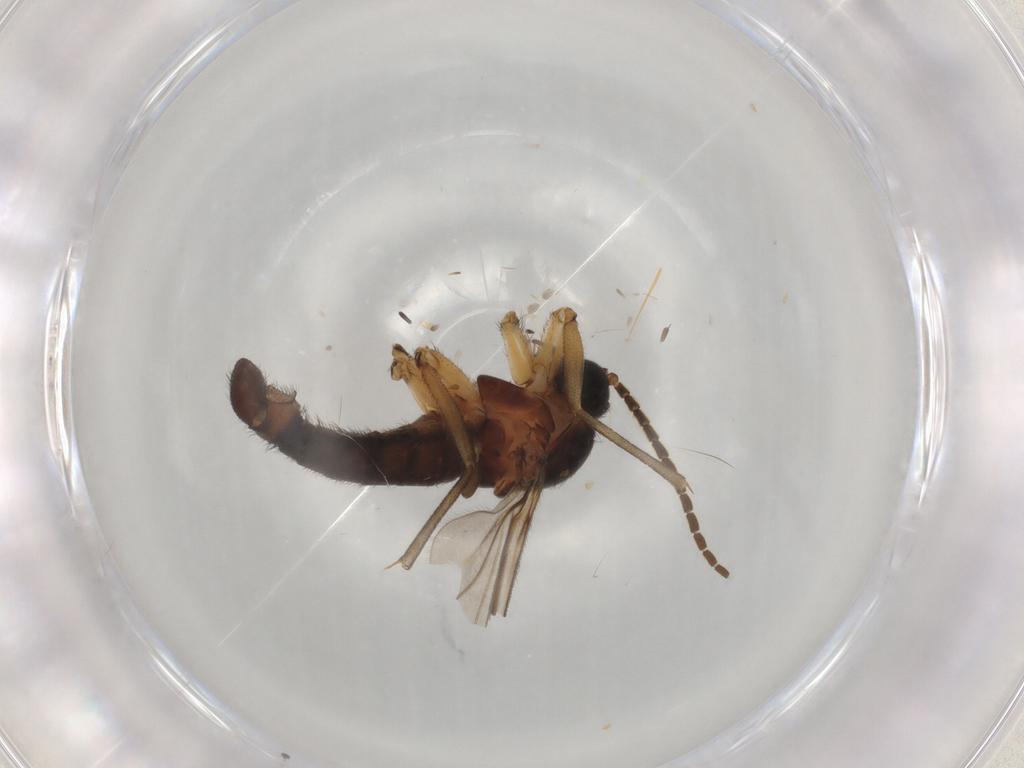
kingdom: Animalia
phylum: Arthropoda
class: Insecta
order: Diptera
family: Sciaridae
